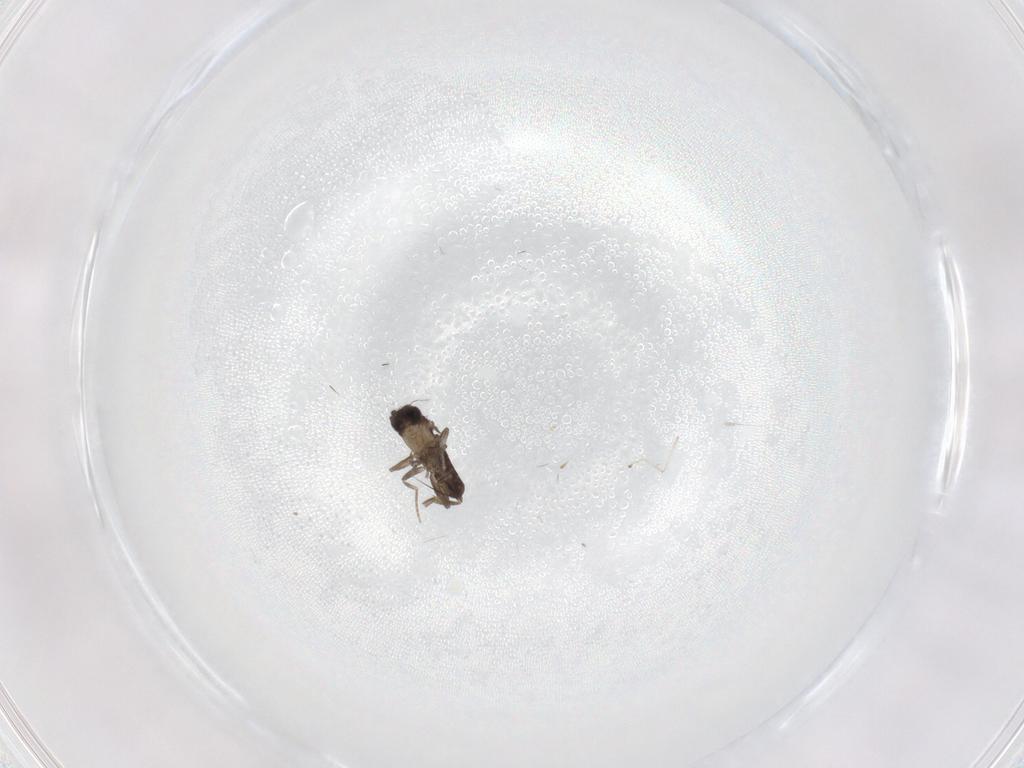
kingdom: Animalia
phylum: Arthropoda
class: Insecta
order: Diptera
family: Cecidomyiidae
